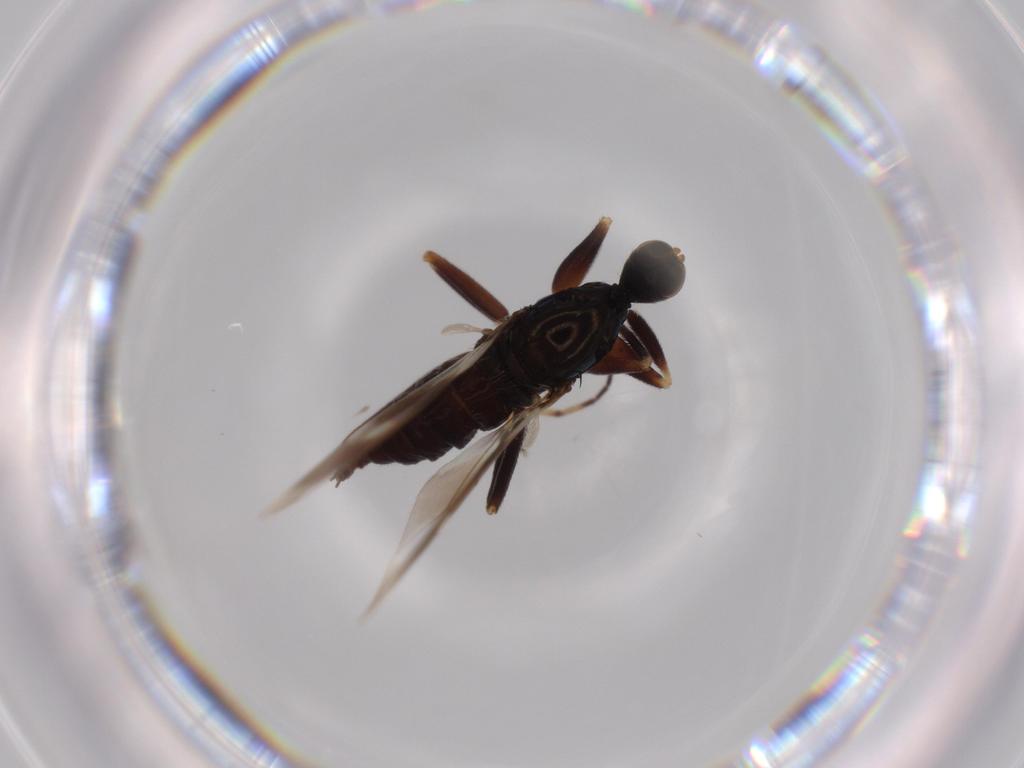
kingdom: Animalia
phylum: Arthropoda
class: Insecta
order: Diptera
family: Hybotidae
